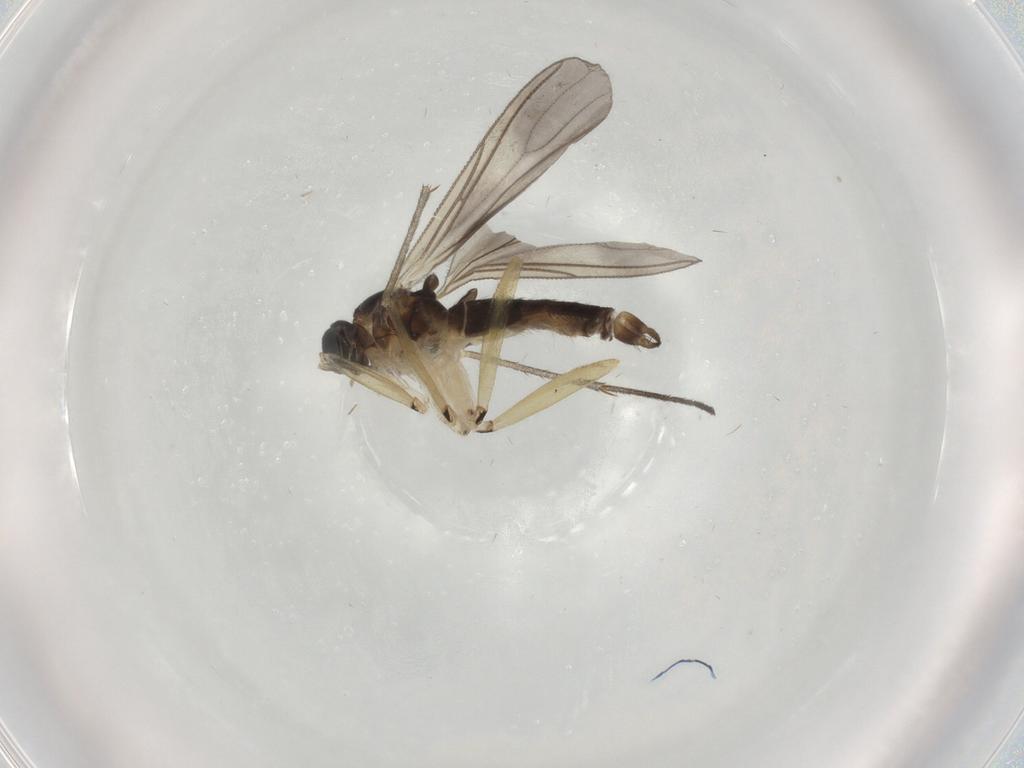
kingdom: Animalia
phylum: Arthropoda
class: Insecta
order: Diptera
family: Sciaridae
